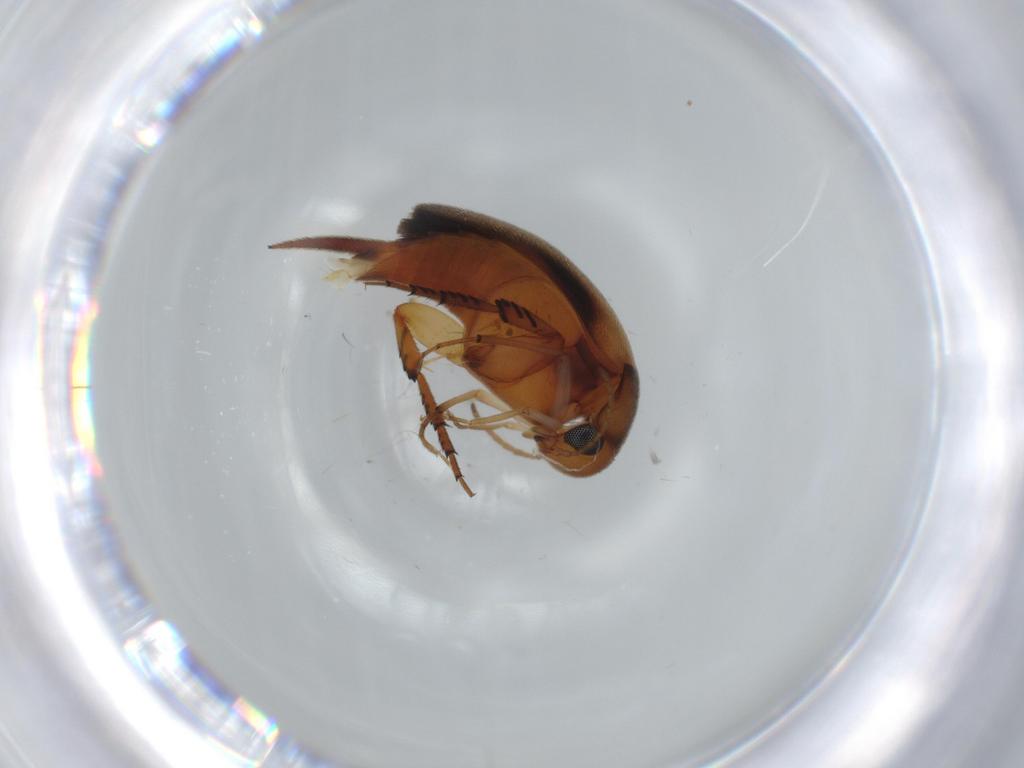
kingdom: Animalia
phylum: Arthropoda
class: Insecta
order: Coleoptera
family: Mordellidae
